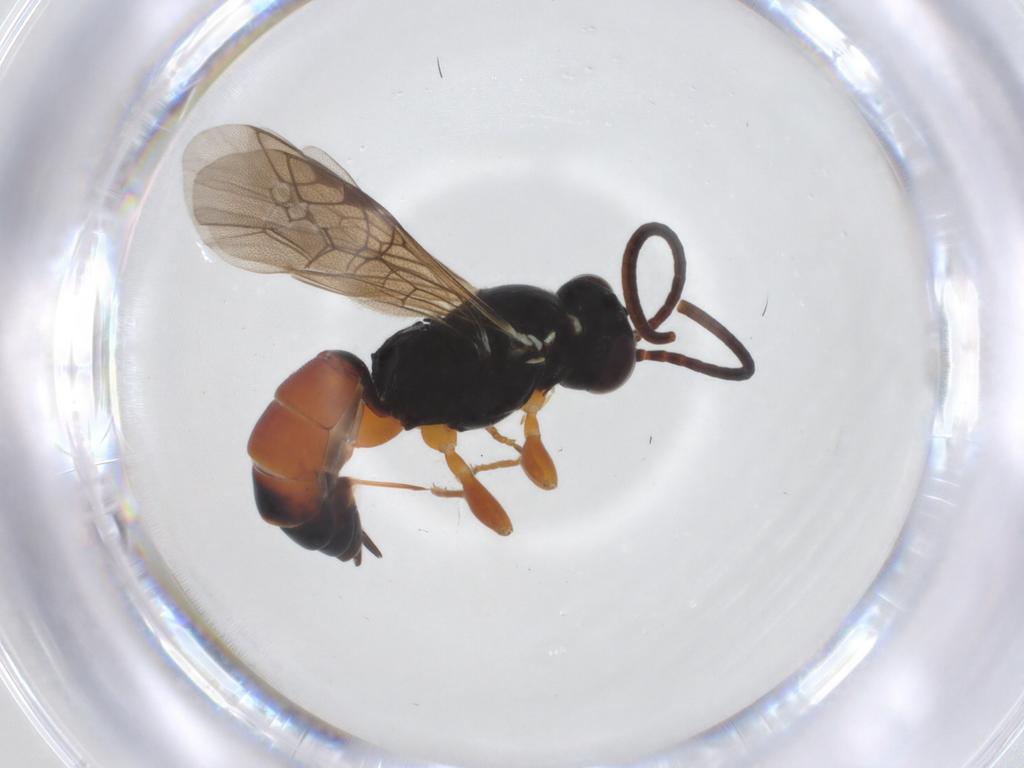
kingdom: Animalia
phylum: Arthropoda
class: Insecta
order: Hymenoptera
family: Ichneumonidae
